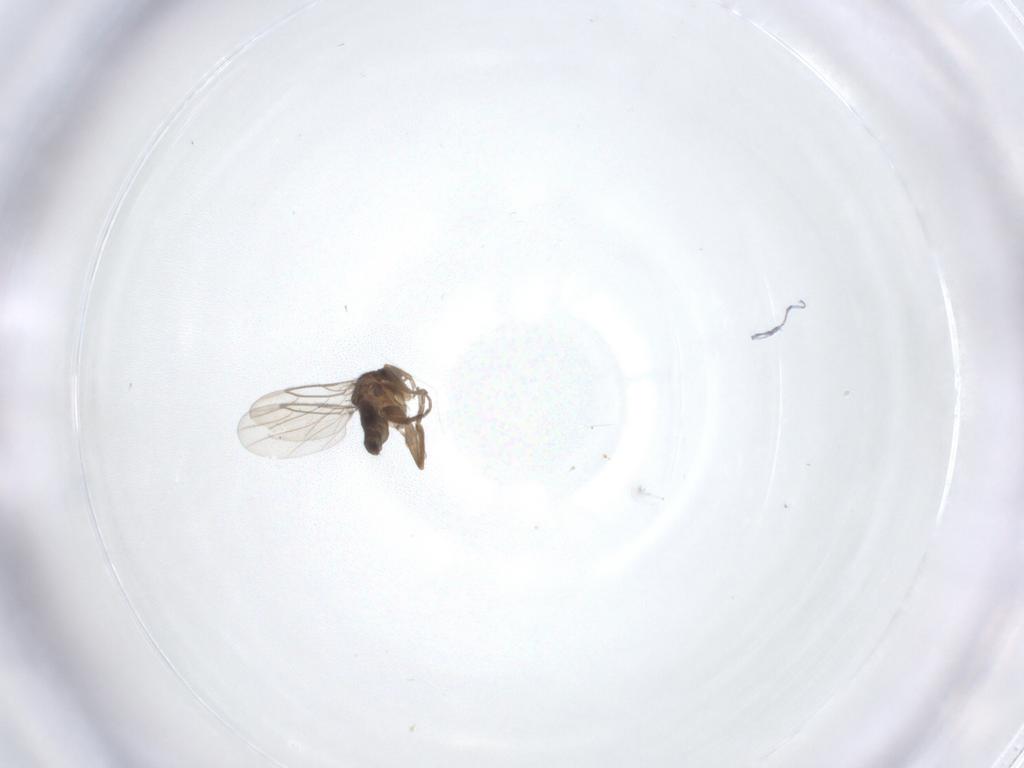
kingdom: Animalia
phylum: Arthropoda
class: Insecta
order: Diptera
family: Phoridae
